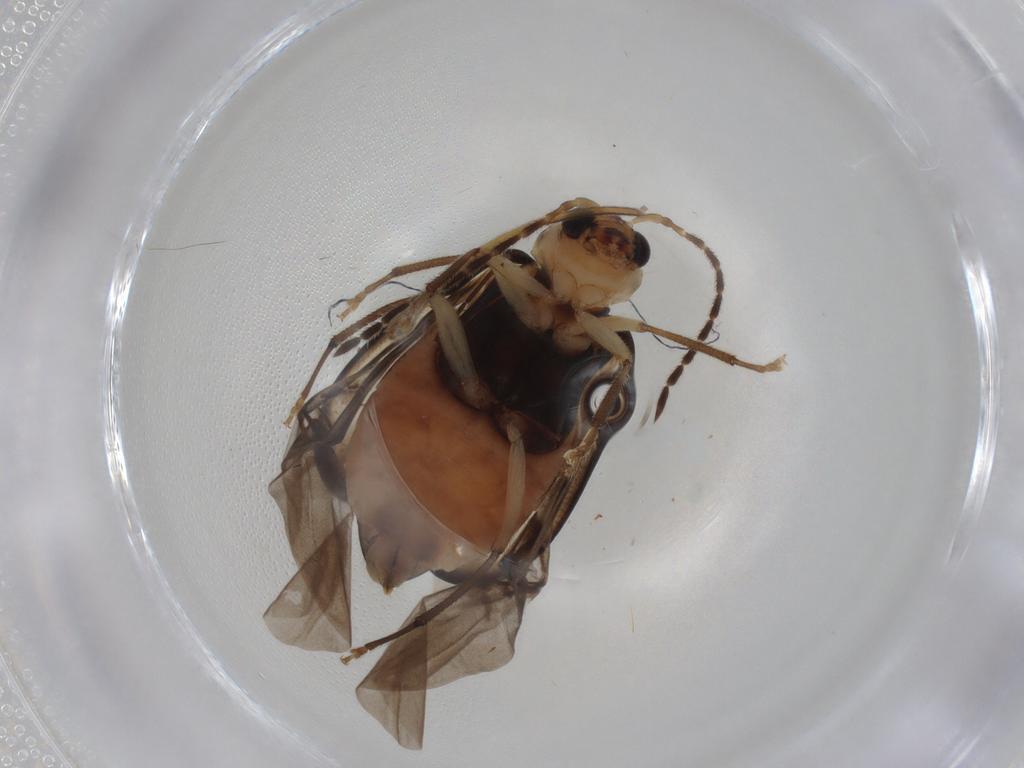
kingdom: Animalia
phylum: Arthropoda
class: Insecta
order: Coleoptera
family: Chrysomelidae
